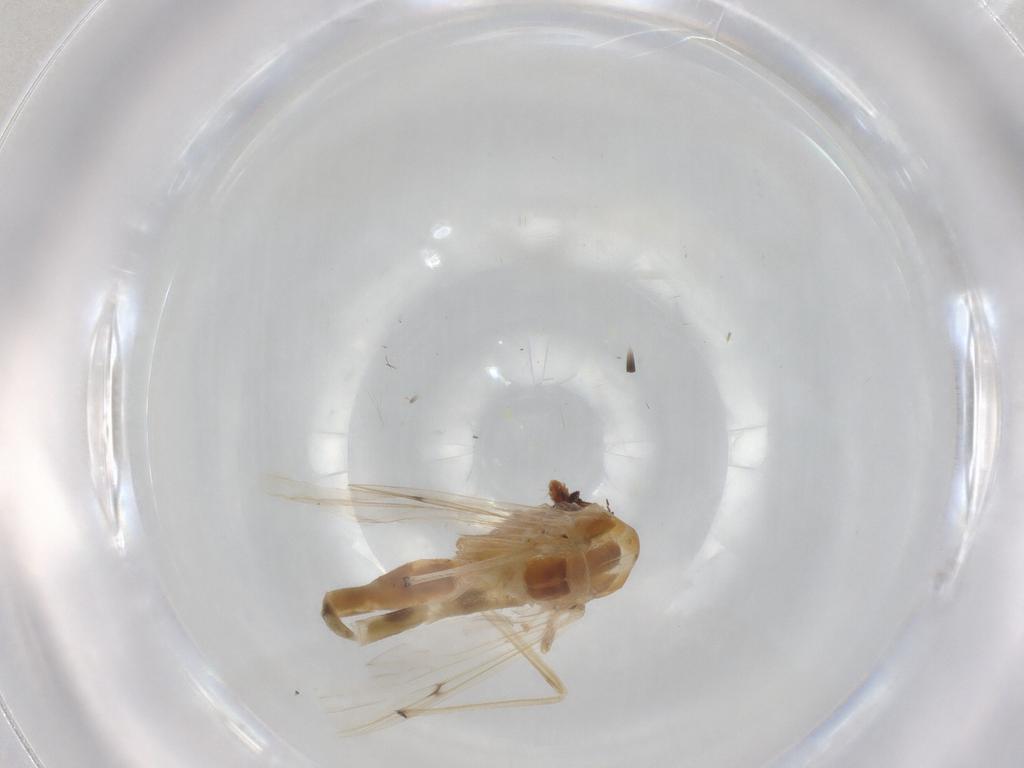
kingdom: Animalia
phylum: Arthropoda
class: Insecta
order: Diptera
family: Chironomidae
